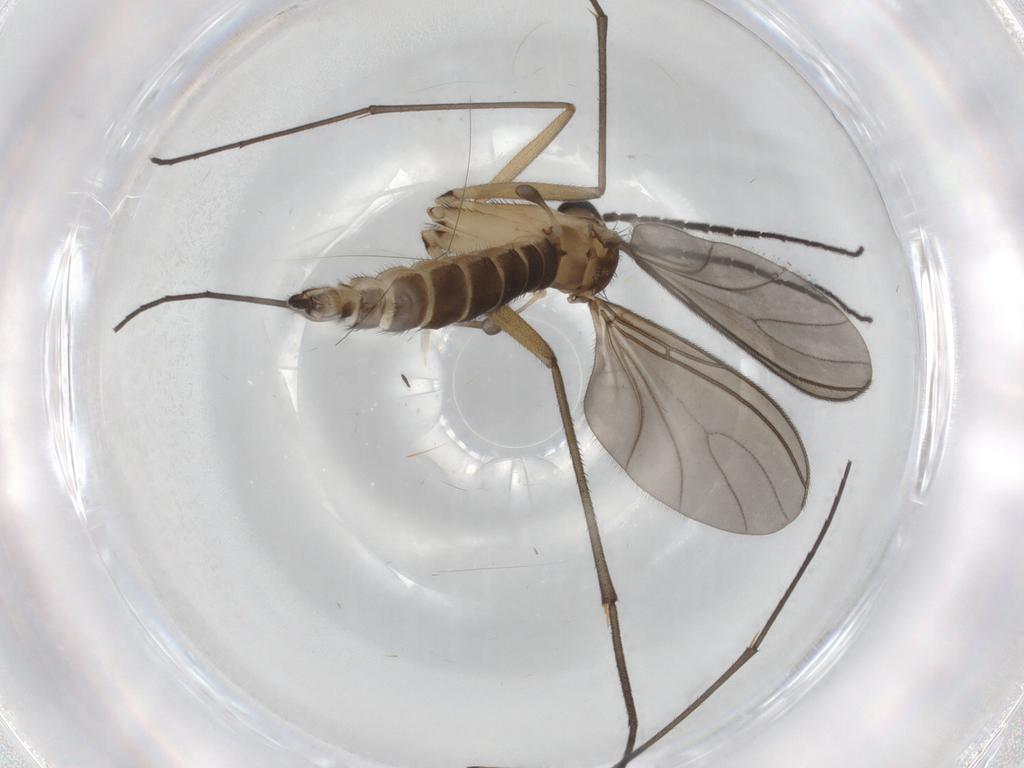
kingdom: Animalia
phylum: Arthropoda
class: Insecta
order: Diptera
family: Sciaridae
